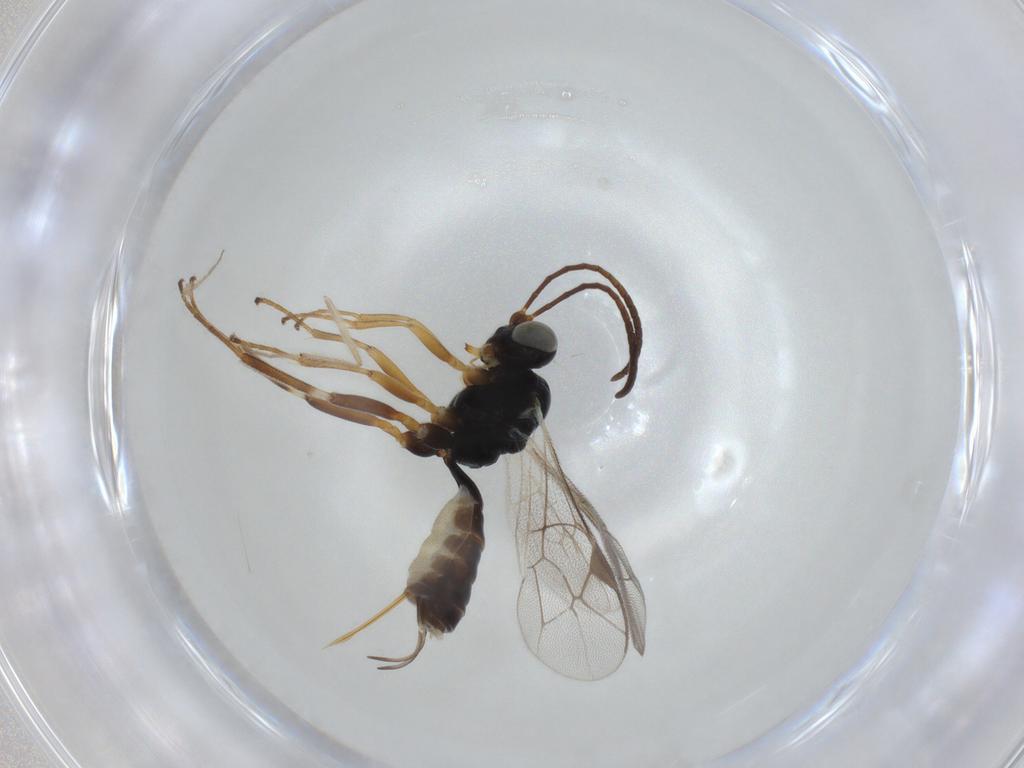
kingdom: Animalia
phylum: Arthropoda
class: Insecta
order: Hymenoptera
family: Ichneumonidae
